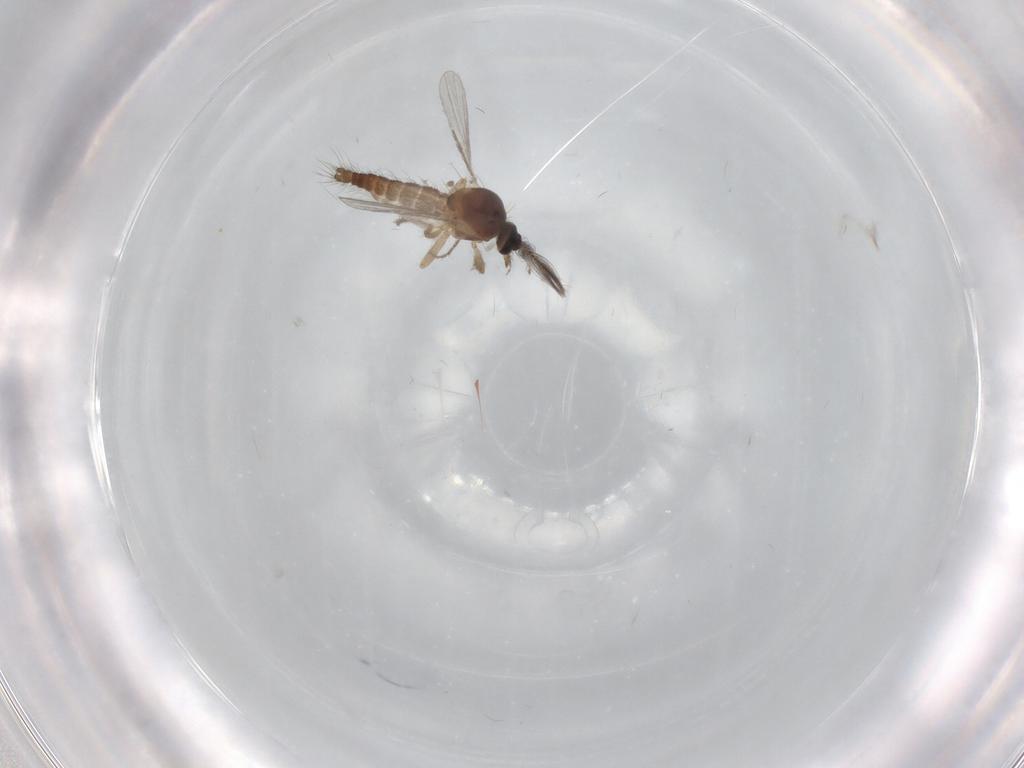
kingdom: Animalia
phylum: Arthropoda
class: Insecta
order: Diptera
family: Ceratopogonidae
